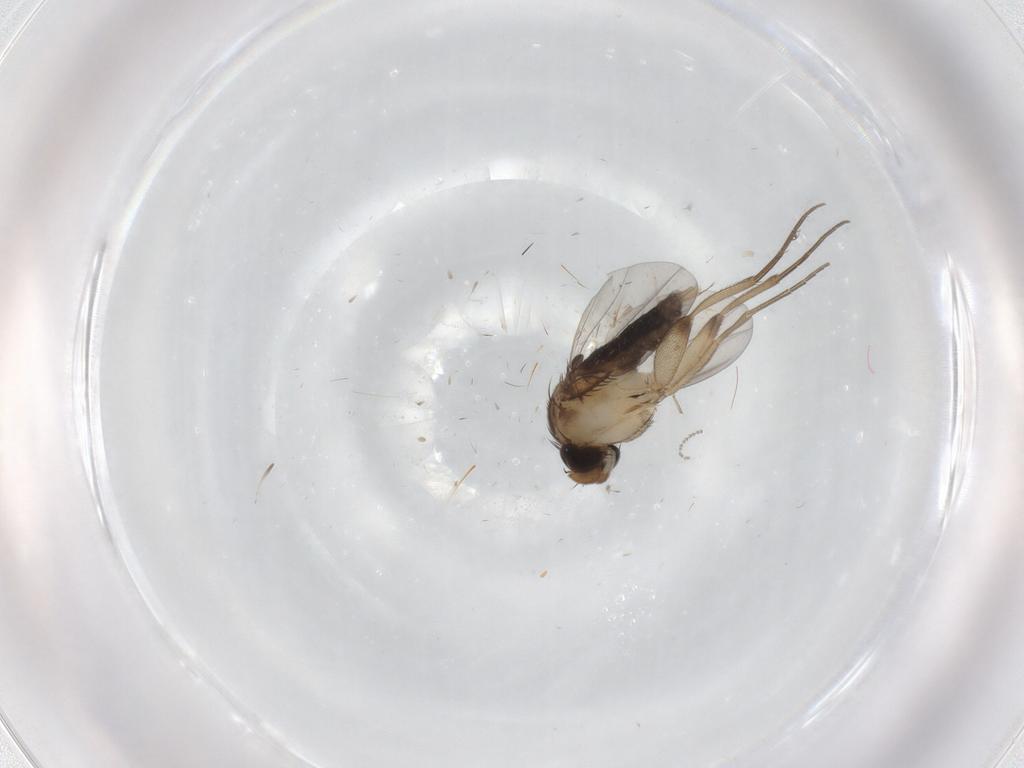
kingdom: Animalia
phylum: Arthropoda
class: Insecta
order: Diptera
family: Phoridae
